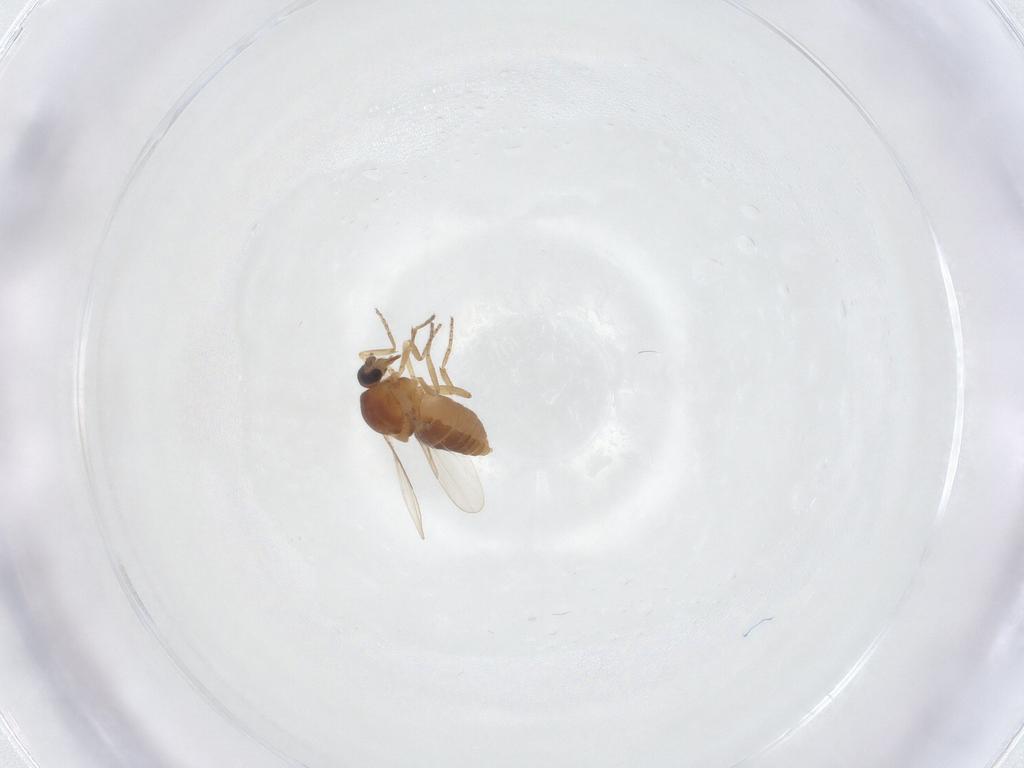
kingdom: Animalia
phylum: Arthropoda
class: Insecta
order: Diptera
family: Ceratopogonidae
